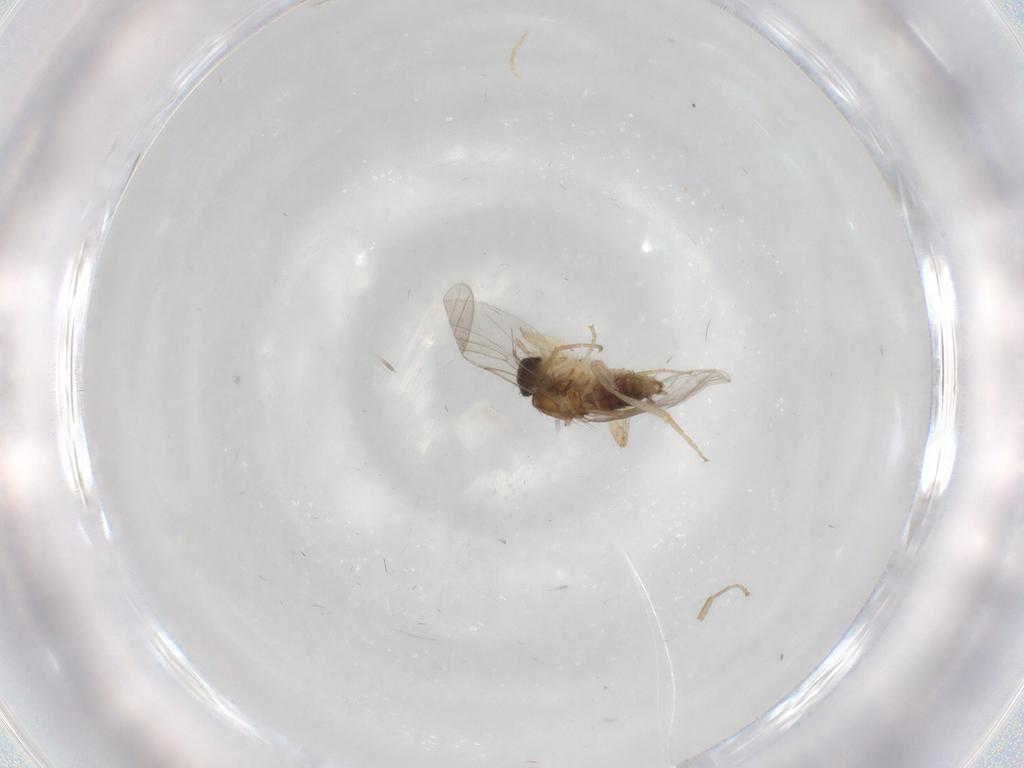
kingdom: Animalia
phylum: Arthropoda
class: Insecta
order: Diptera
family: Hybotidae
